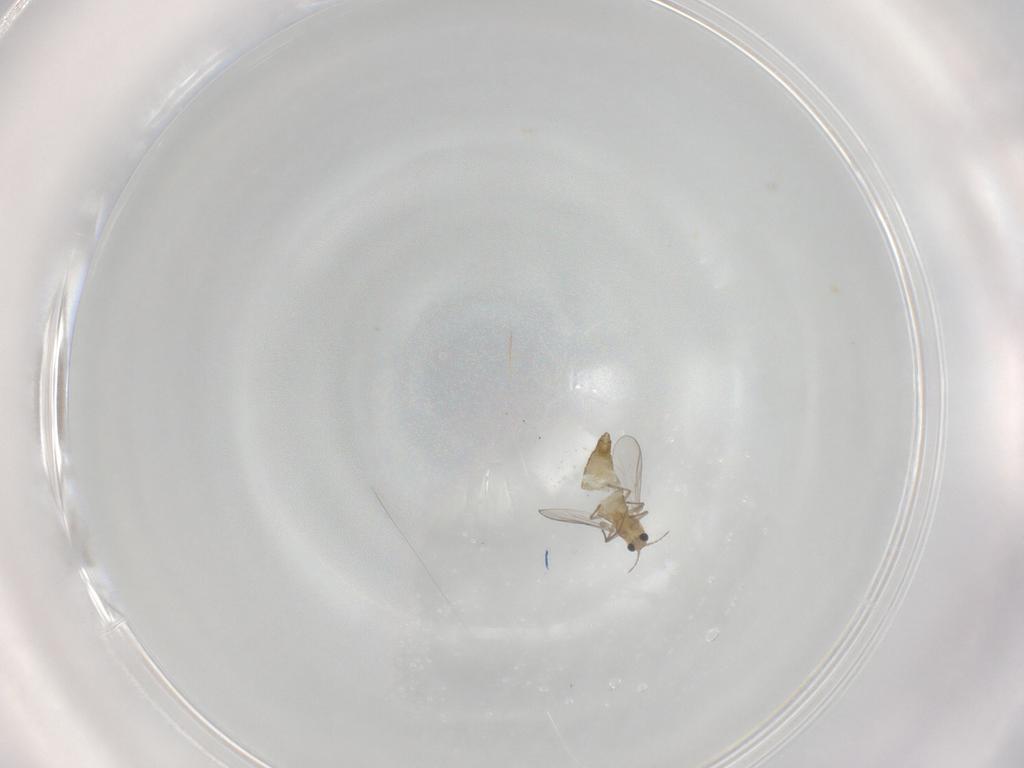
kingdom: Animalia
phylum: Arthropoda
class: Insecta
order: Diptera
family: Chironomidae
